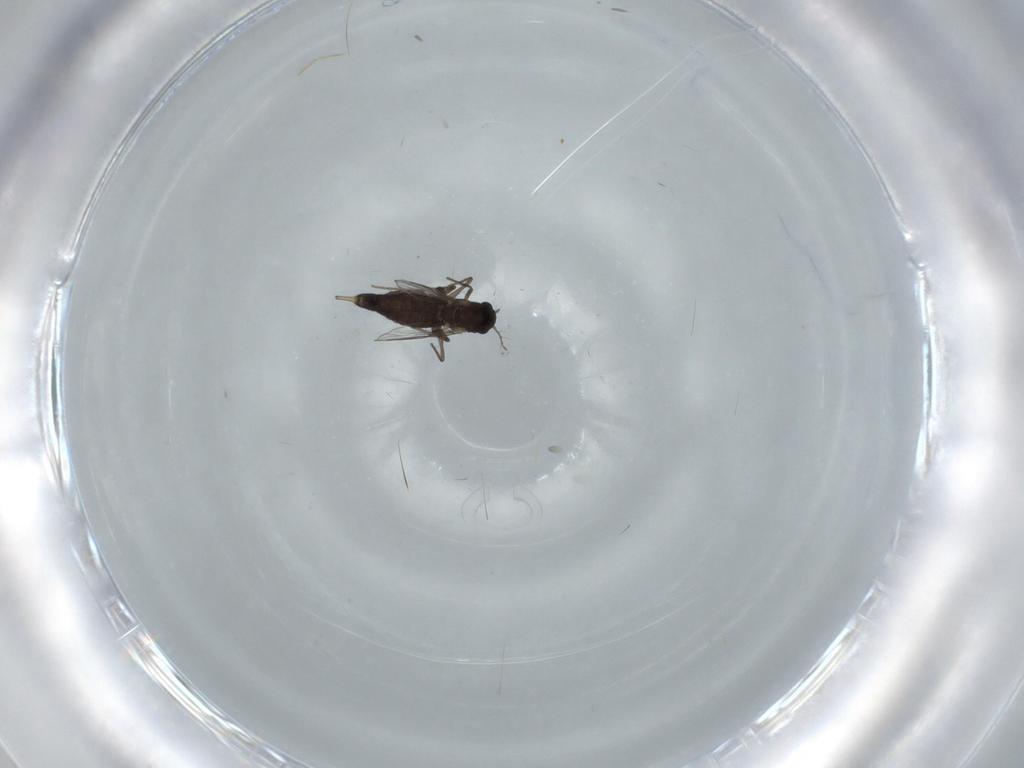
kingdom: Animalia
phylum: Arthropoda
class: Insecta
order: Diptera
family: Chironomidae
